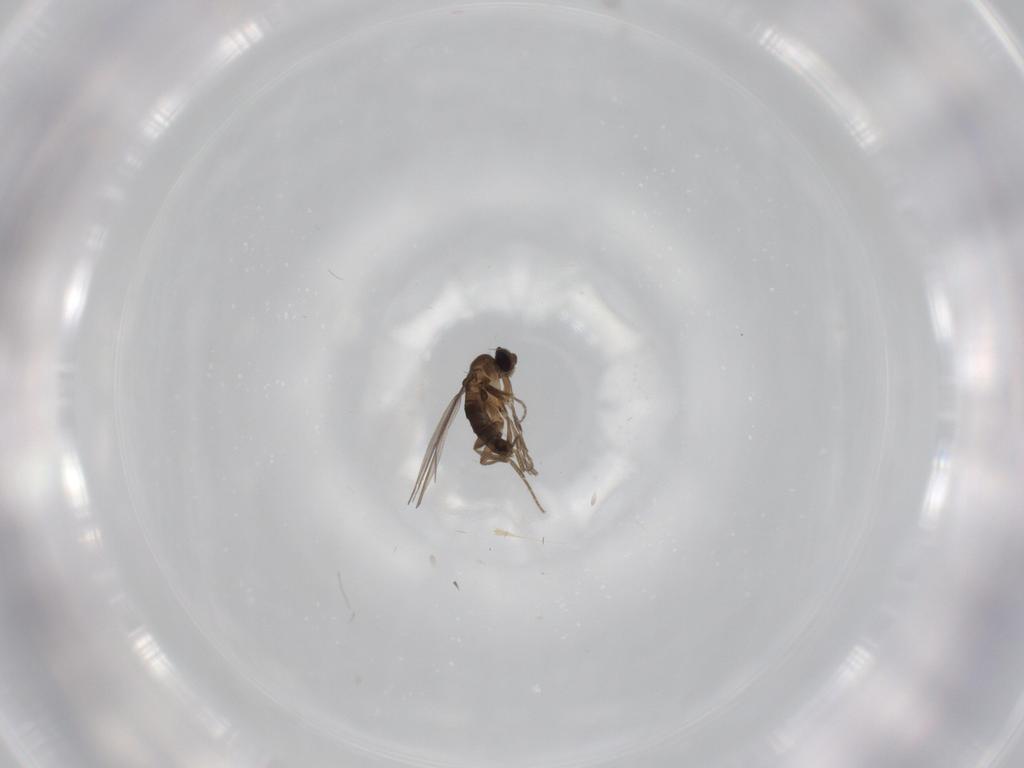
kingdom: Animalia
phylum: Arthropoda
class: Insecta
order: Diptera
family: Phoridae
